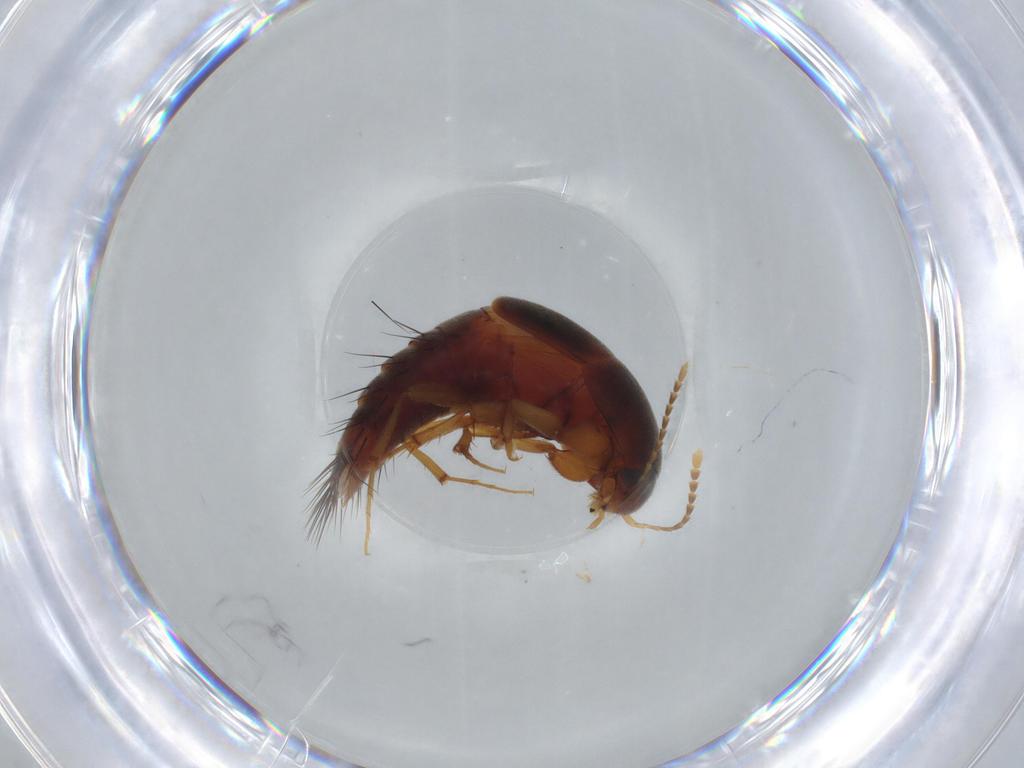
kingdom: Animalia
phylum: Arthropoda
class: Insecta
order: Coleoptera
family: Staphylinidae
